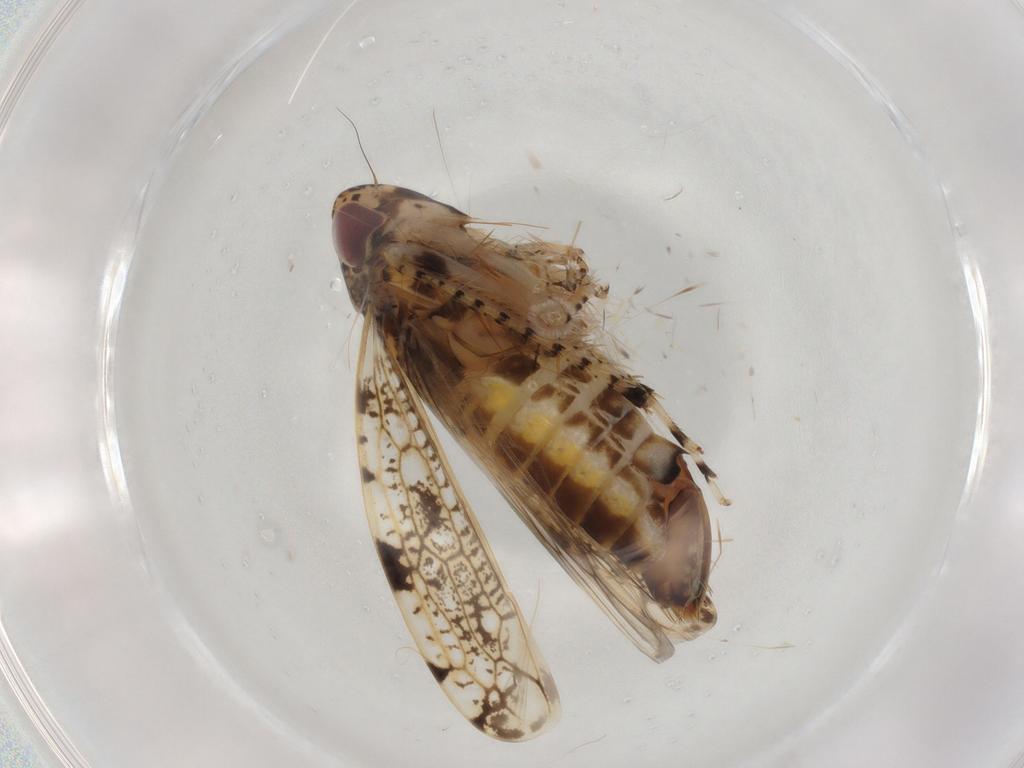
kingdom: Animalia
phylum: Arthropoda
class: Insecta
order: Hemiptera
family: Cicadellidae
